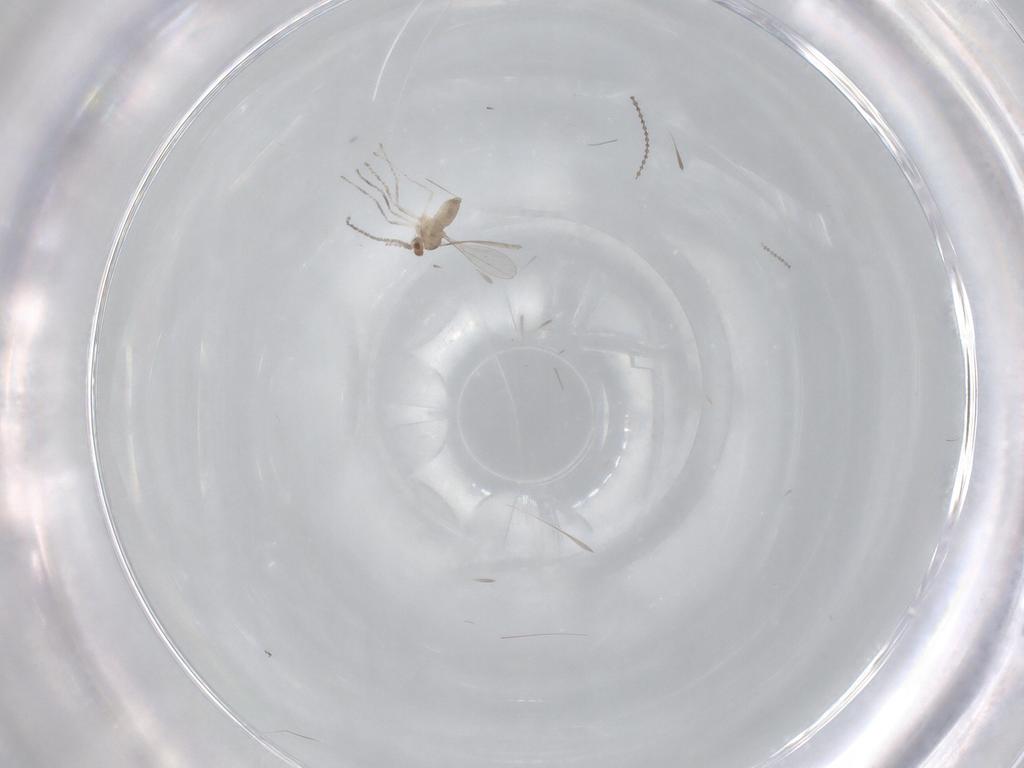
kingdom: Animalia
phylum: Arthropoda
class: Insecta
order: Diptera
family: Cecidomyiidae
